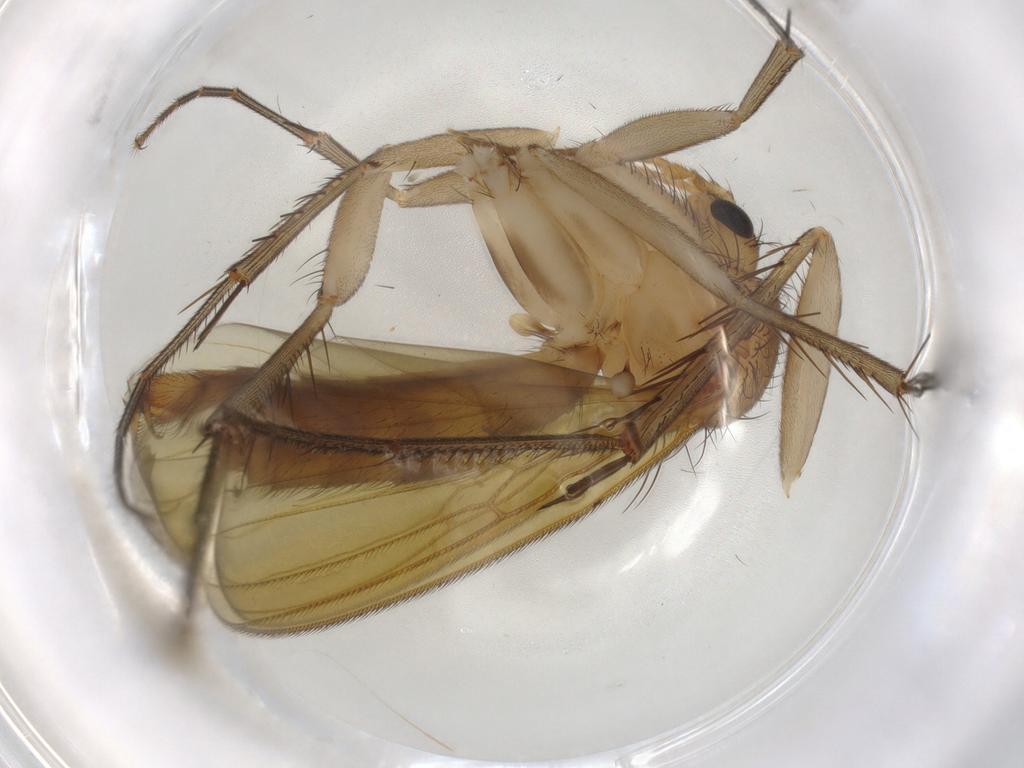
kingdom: Animalia
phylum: Arthropoda
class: Insecta
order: Diptera
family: Mycetophilidae
